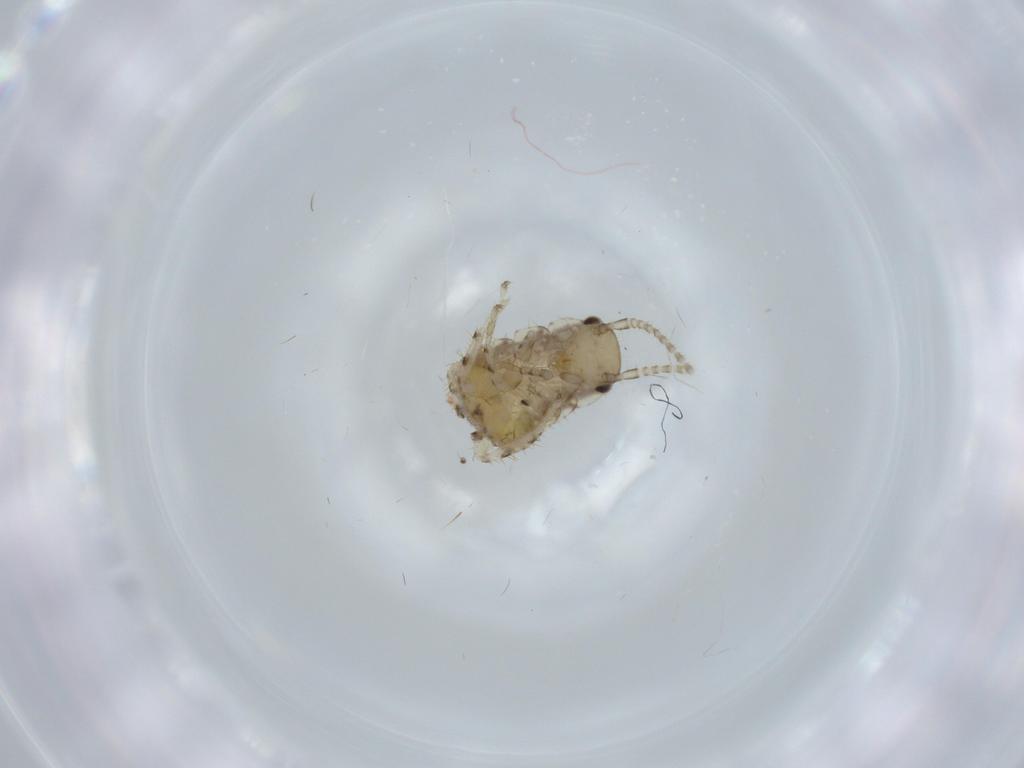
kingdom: Animalia
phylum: Arthropoda
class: Insecta
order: Blattodea
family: Ectobiidae
